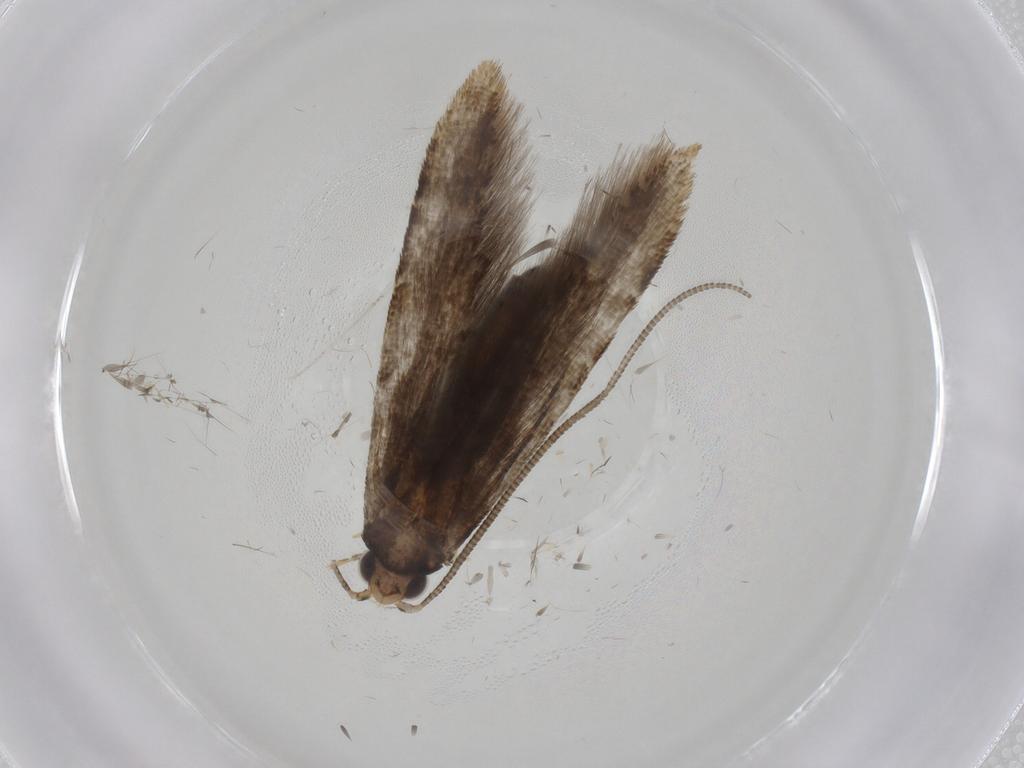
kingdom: Animalia
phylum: Arthropoda
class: Insecta
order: Lepidoptera
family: Tineidae
